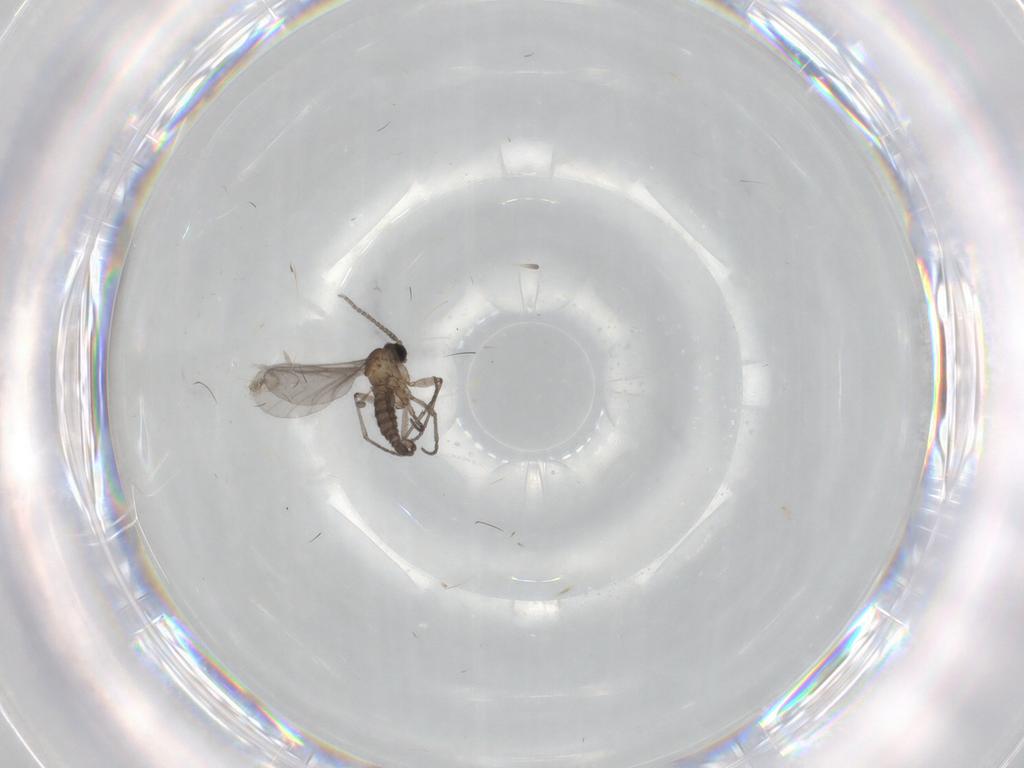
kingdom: Animalia
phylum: Arthropoda
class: Insecta
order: Diptera
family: Sciaridae
